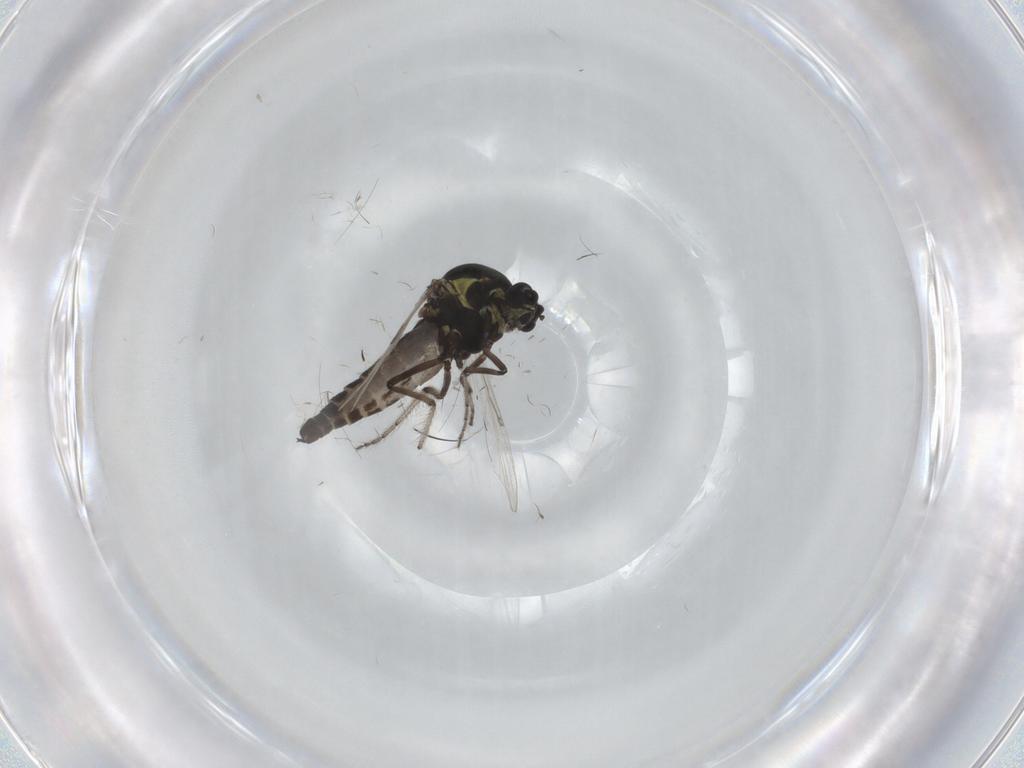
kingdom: Animalia
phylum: Arthropoda
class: Insecta
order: Diptera
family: Ceratopogonidae
